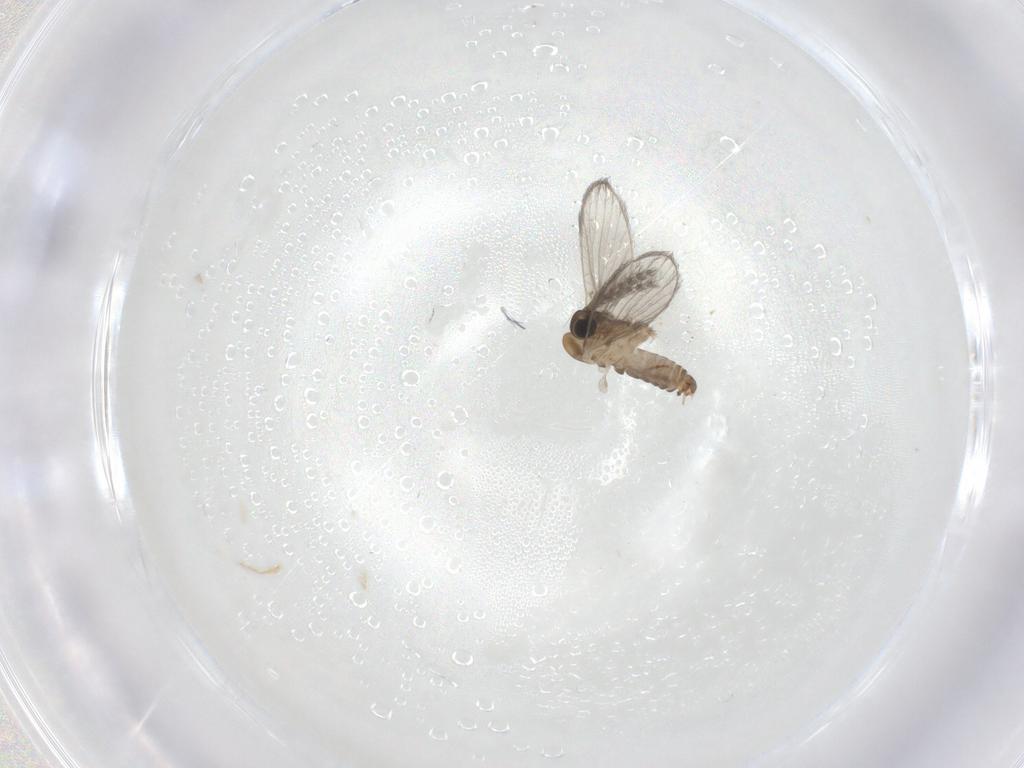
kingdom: Animalia
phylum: Arthropoda
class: Insecta
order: Diptera
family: Psychodidae
